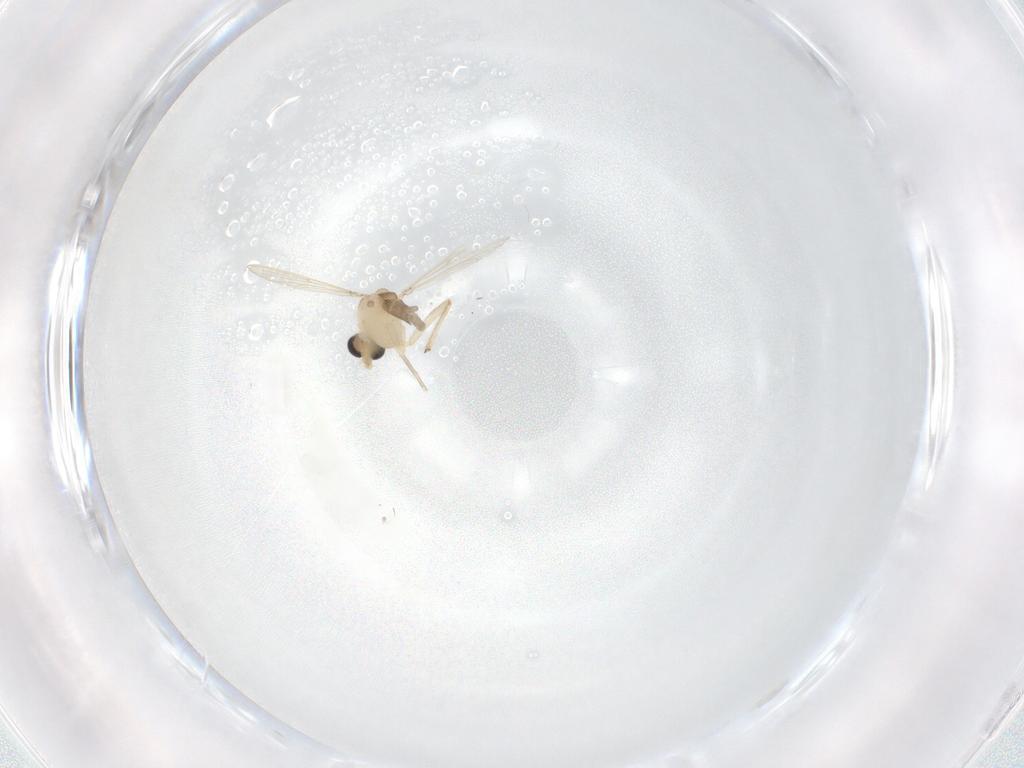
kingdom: Animalia
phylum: Arthropoda
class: Insecta
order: Diptera
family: Chironomidae
